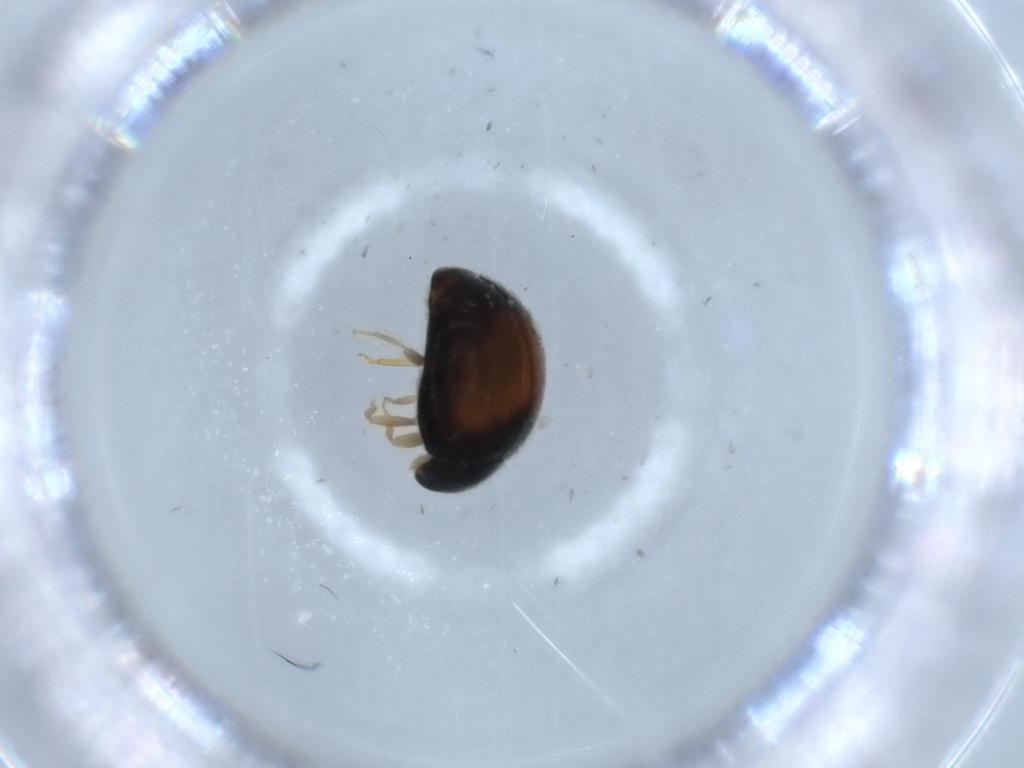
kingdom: Animalia
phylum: Arthropoda
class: Insecta
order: Coleoptera
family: Coccinellidae
